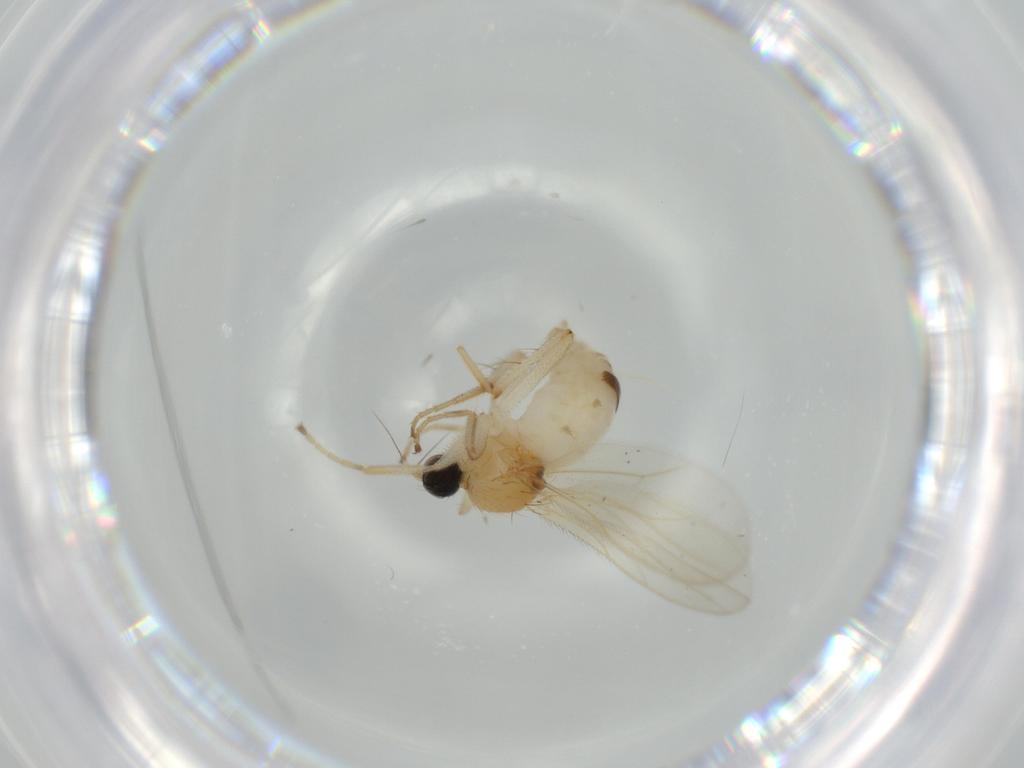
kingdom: Animalia
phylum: Arthropoda
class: Insecta
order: Diptera
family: Hybotidae
